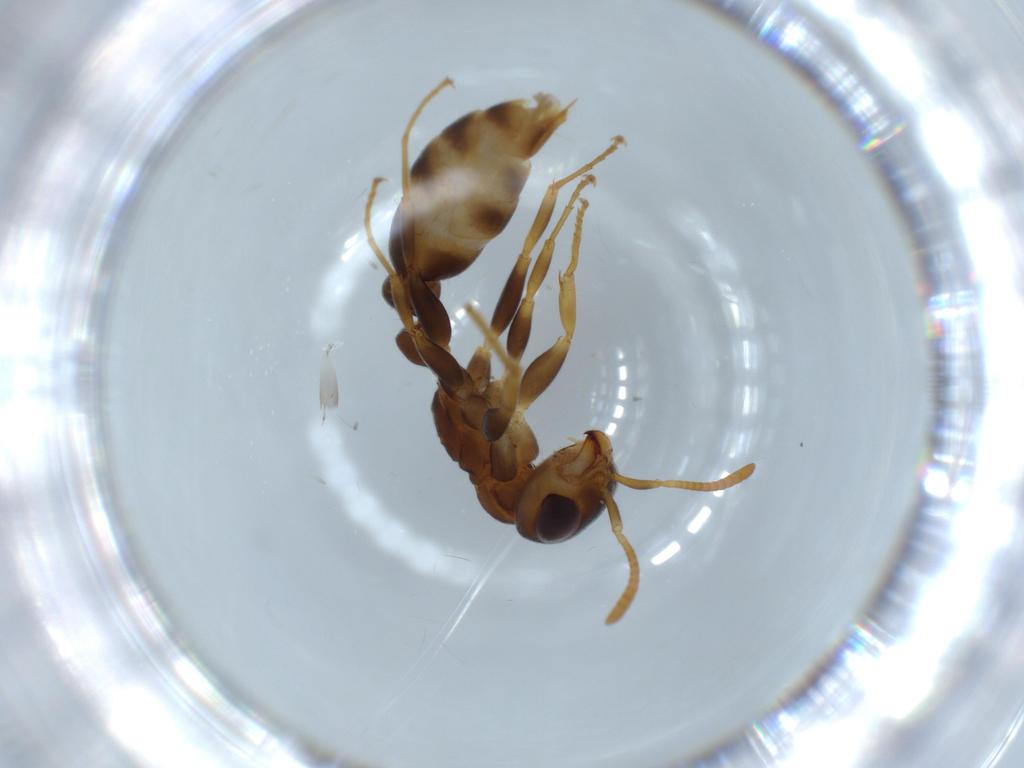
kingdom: Animalia
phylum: Arthropoda
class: Insecta
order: Hymenoptera
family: Formicidae
